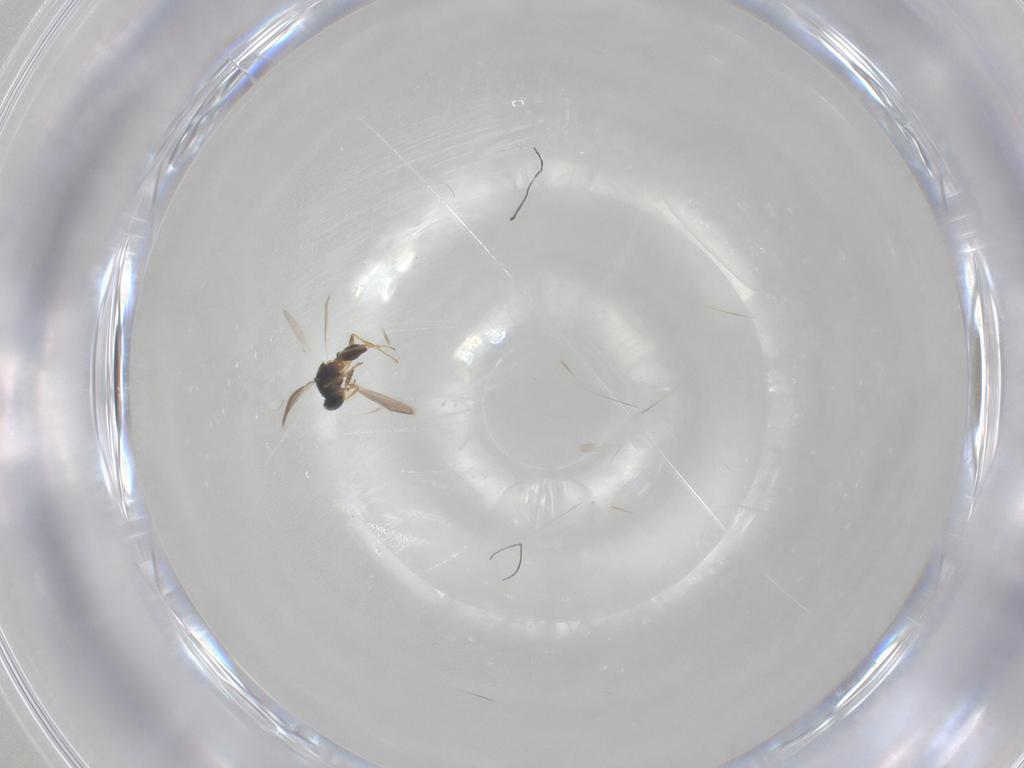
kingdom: Animalia
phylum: Arthropoda
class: Insecta
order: Hymenoptera
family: Platygastridae
